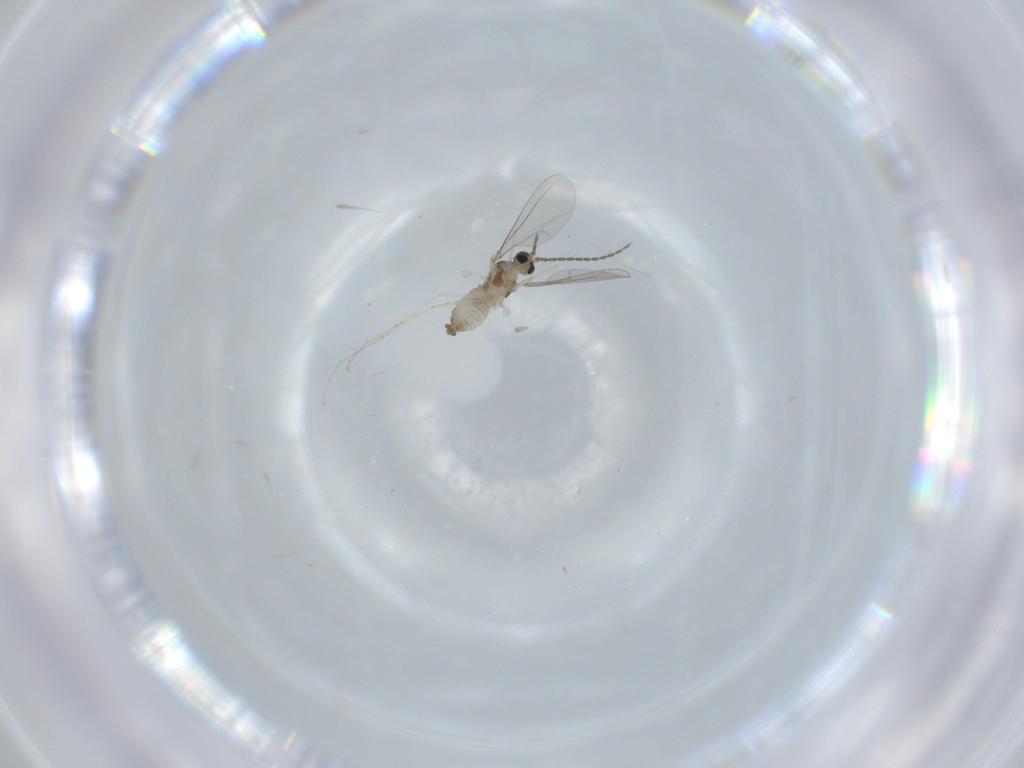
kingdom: Animalia
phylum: Arthropoda
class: Insecta
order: Diptera
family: Cecidomyiidae
